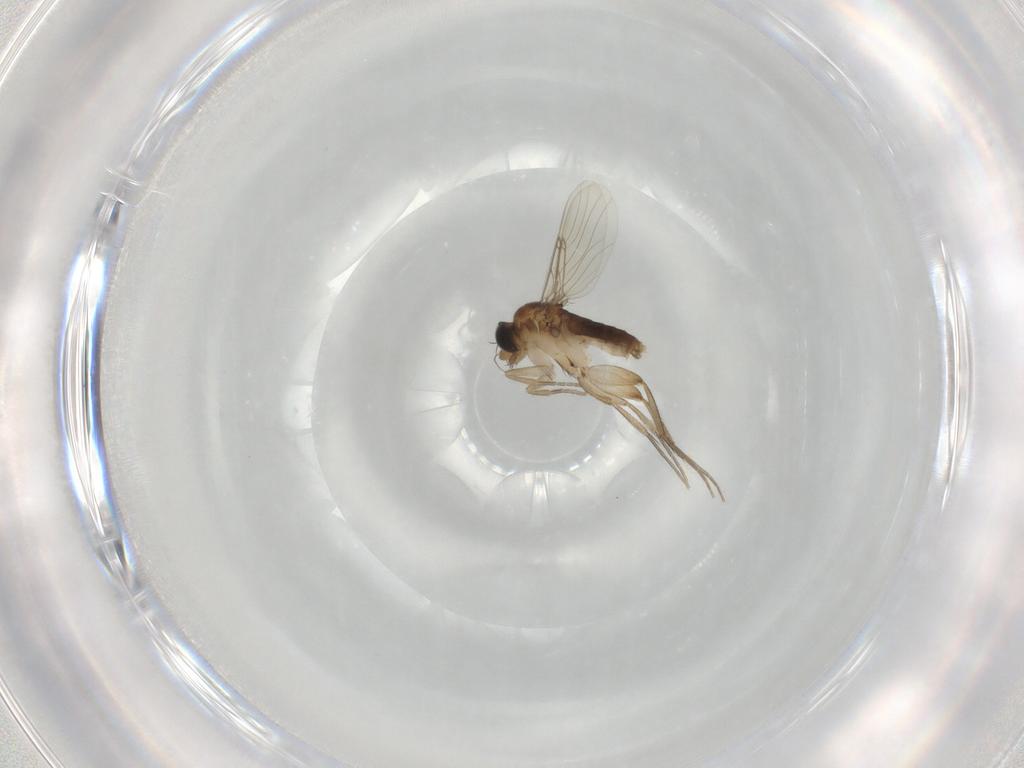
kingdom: Animalia
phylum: Arthropoda
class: Insecta
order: Diptera
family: Phoridae
